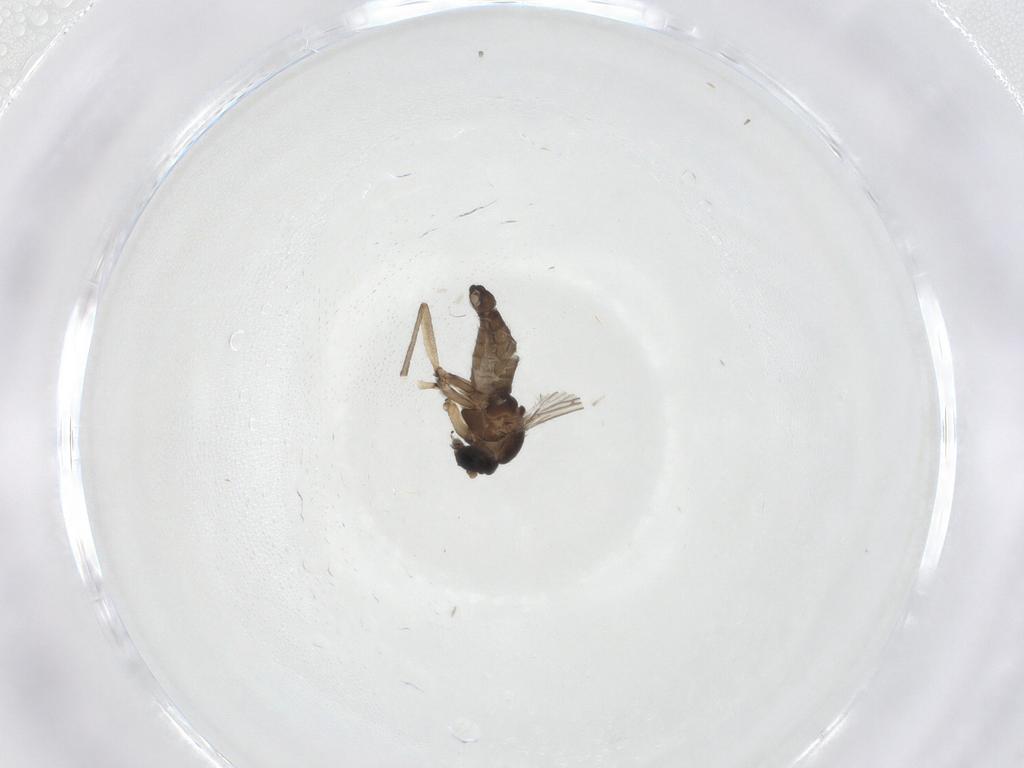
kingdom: Animalia
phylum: Arthropoda
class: Insecta
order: Diptera
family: Sciaridae
